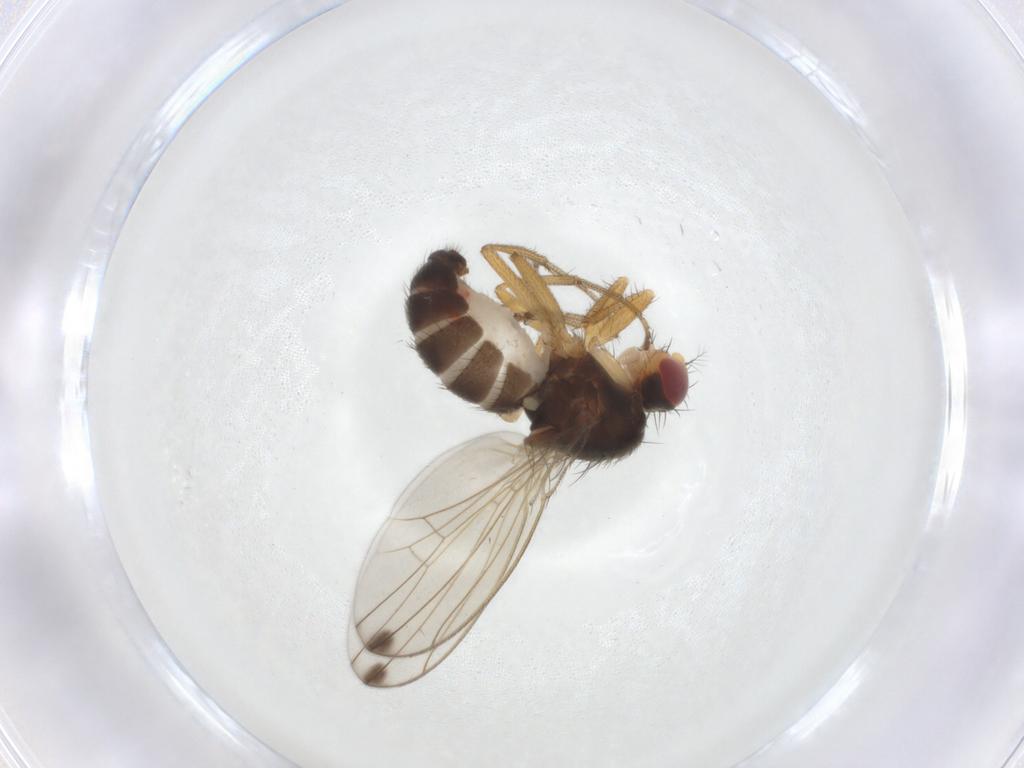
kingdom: Animalia
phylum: Arthropoda
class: Insecta
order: Diptera
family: Drosophilidae
